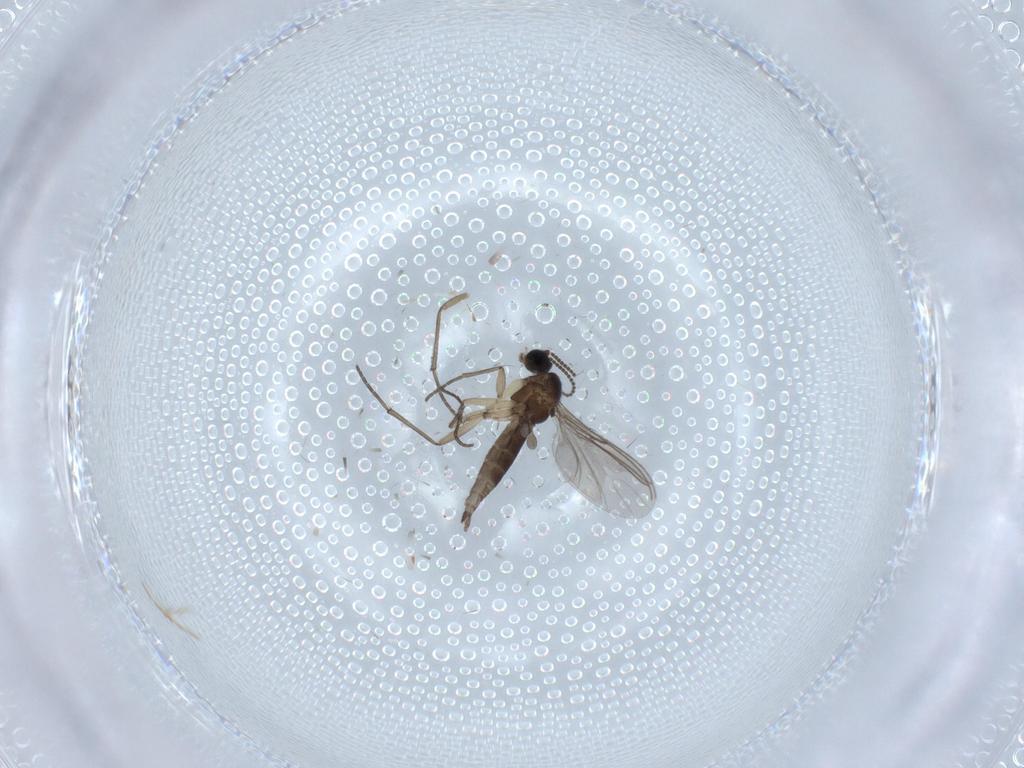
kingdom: Animalia
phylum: Arthropoda
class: Insecta
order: Diptera
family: Sciaridae
